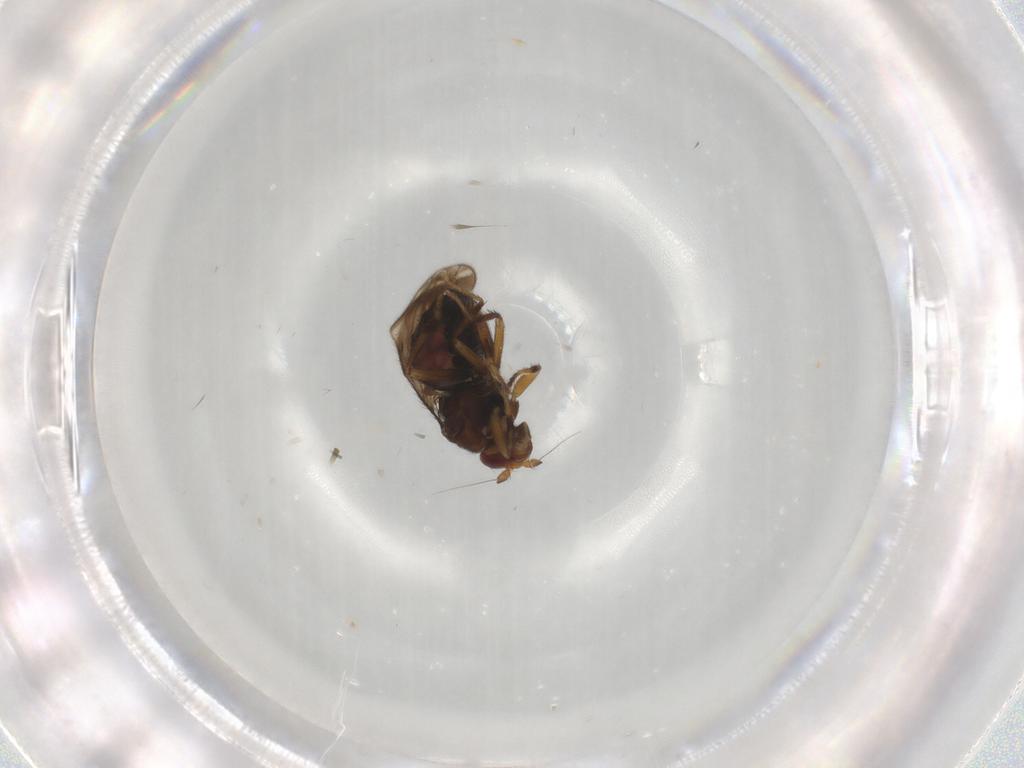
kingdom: Animalia
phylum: Arthropoda
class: Insecta
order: Diptera
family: Sphaeroceridae
